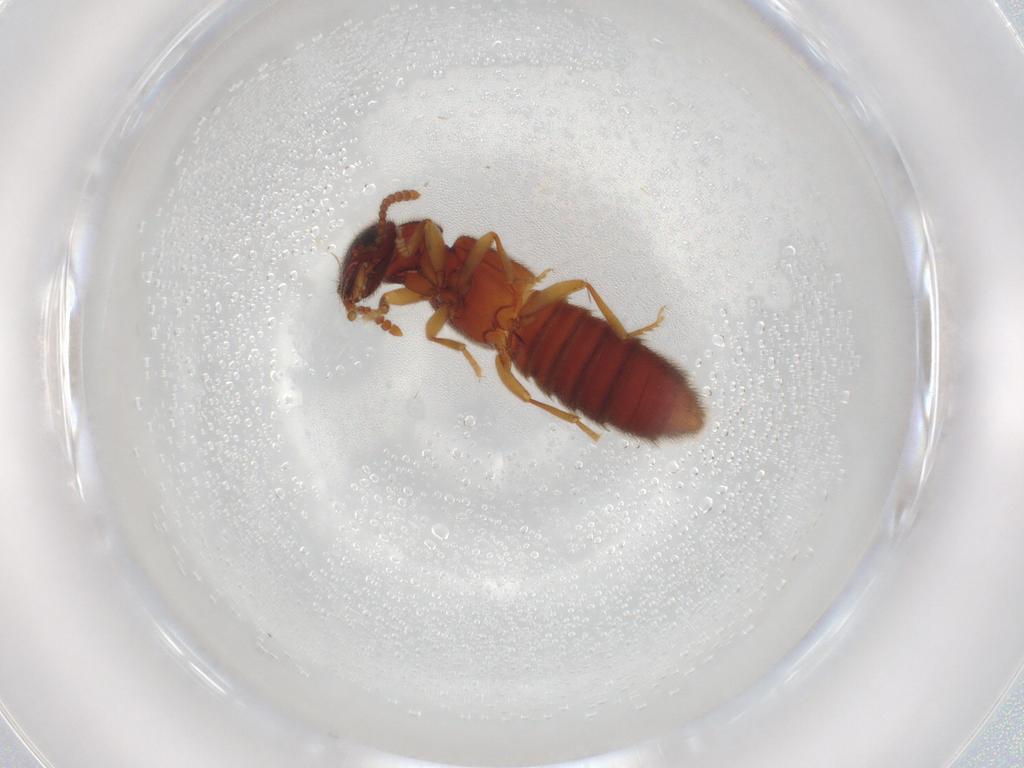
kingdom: Animalia
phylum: Arthropoda
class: Insecta
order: Coleoptera
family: Staphylinidae
